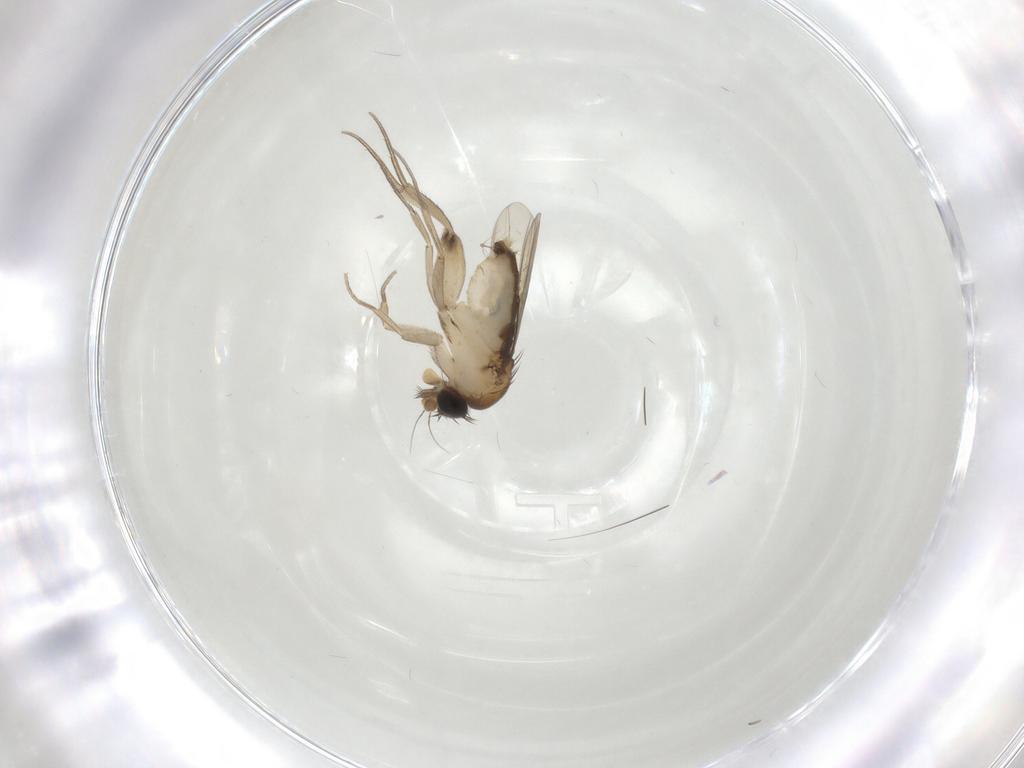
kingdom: Animalia
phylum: Arthropoda
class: Insecta
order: Diptera
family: Phoridae
